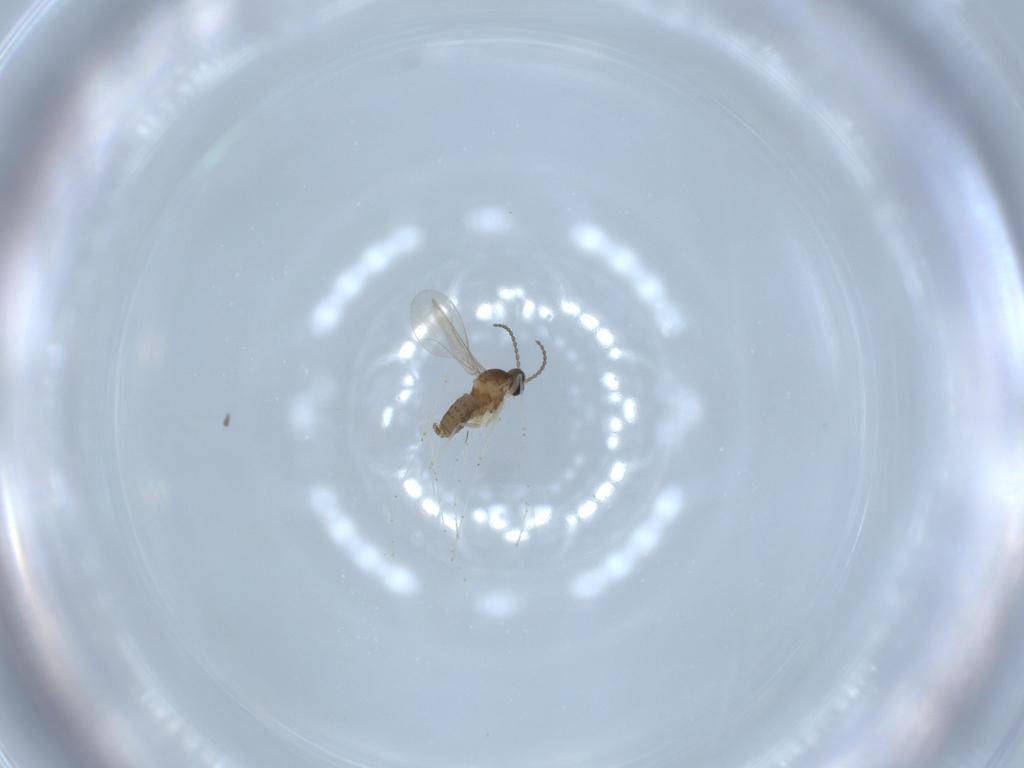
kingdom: Animalia
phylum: Arthropoda
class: Insecta
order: Diptera
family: Cecidomyiidae
